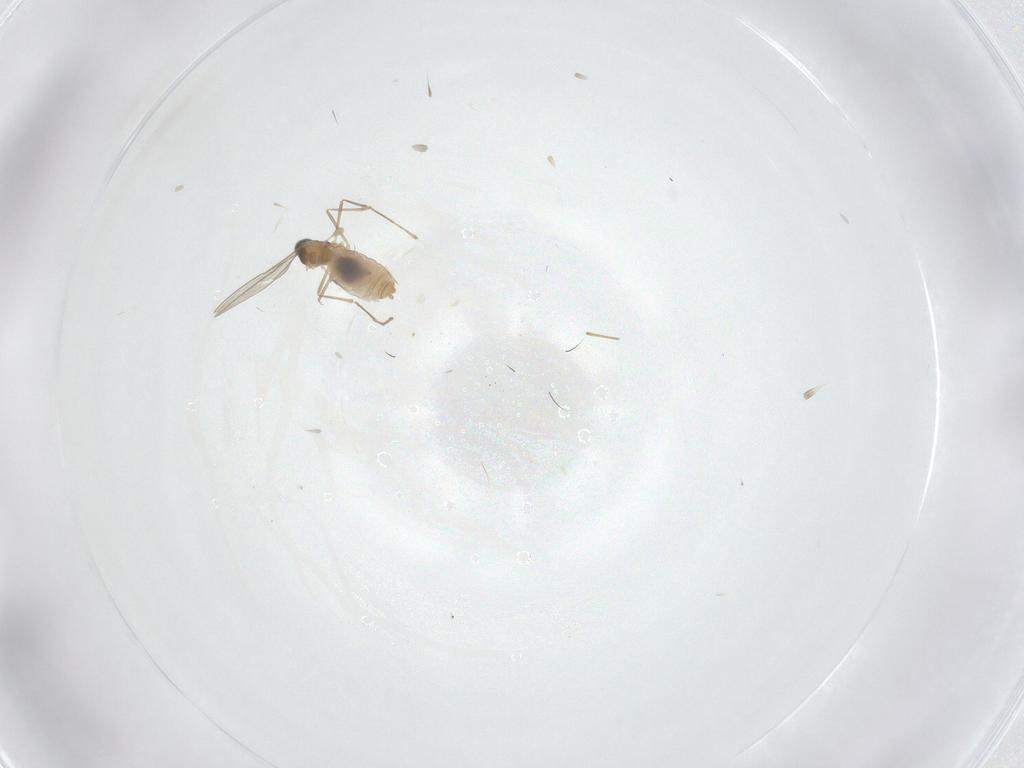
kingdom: Animalia
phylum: Arthropoda
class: Insecta
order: Diptera
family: Cecidomyiidae
